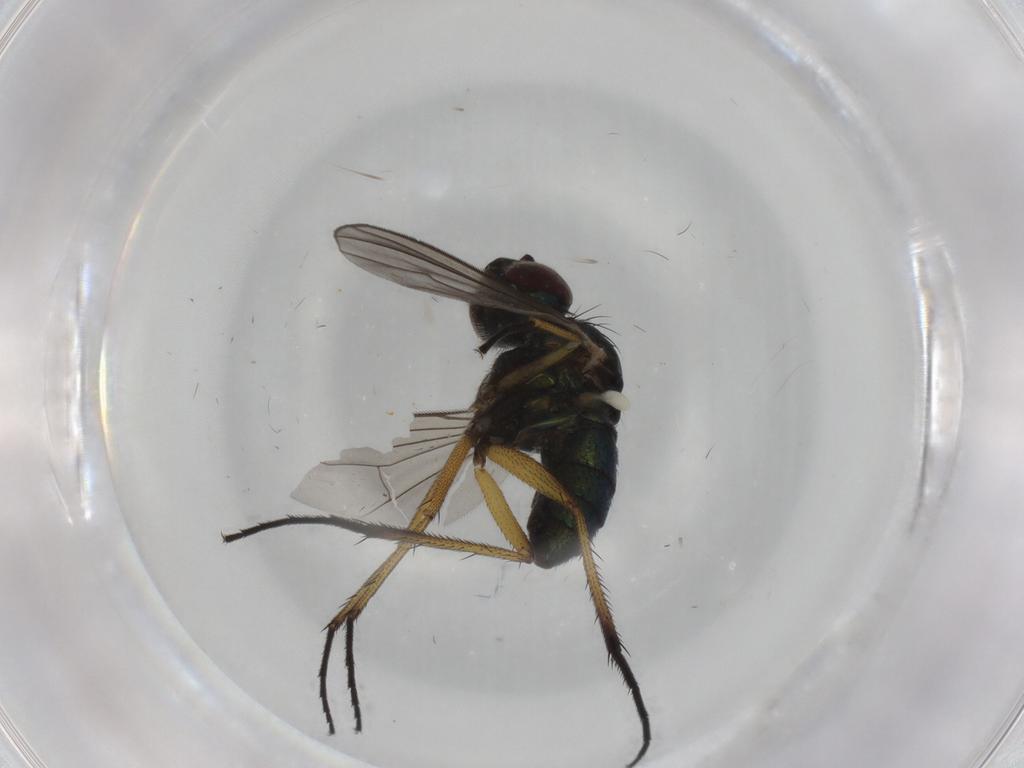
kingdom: Animalia
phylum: Arthropoda
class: Insecta
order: Diptera
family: Dolichopodidae
